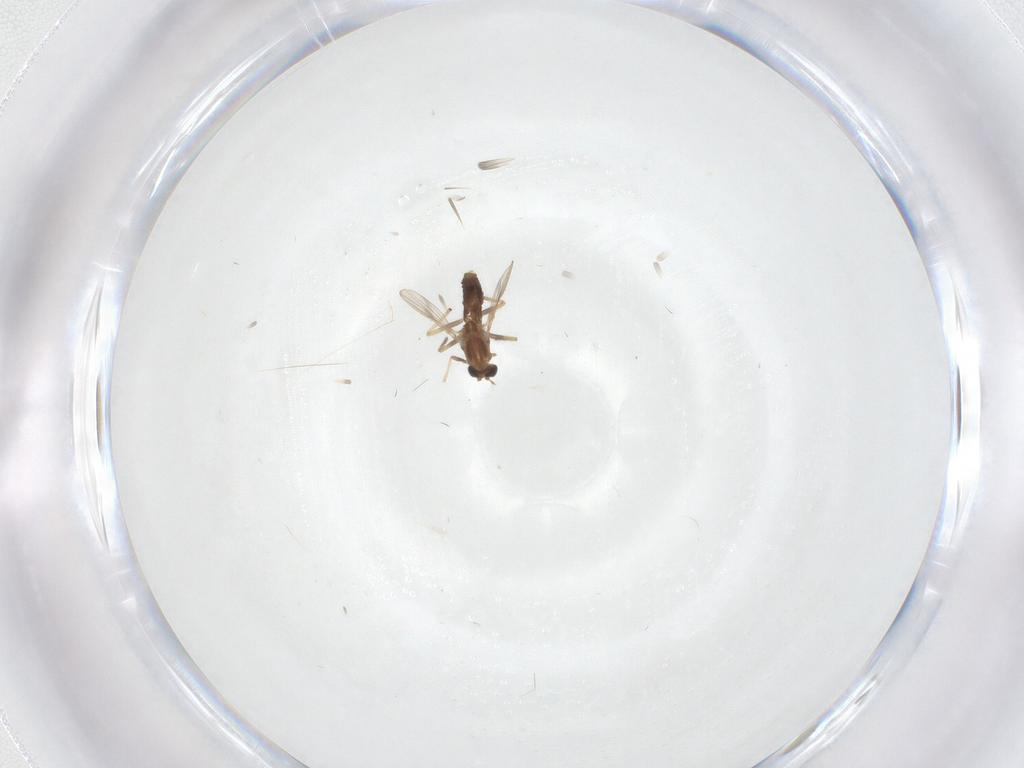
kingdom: Animalia
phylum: Arthropoda
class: Insecta
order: Diptera
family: Cecidomyiidae
